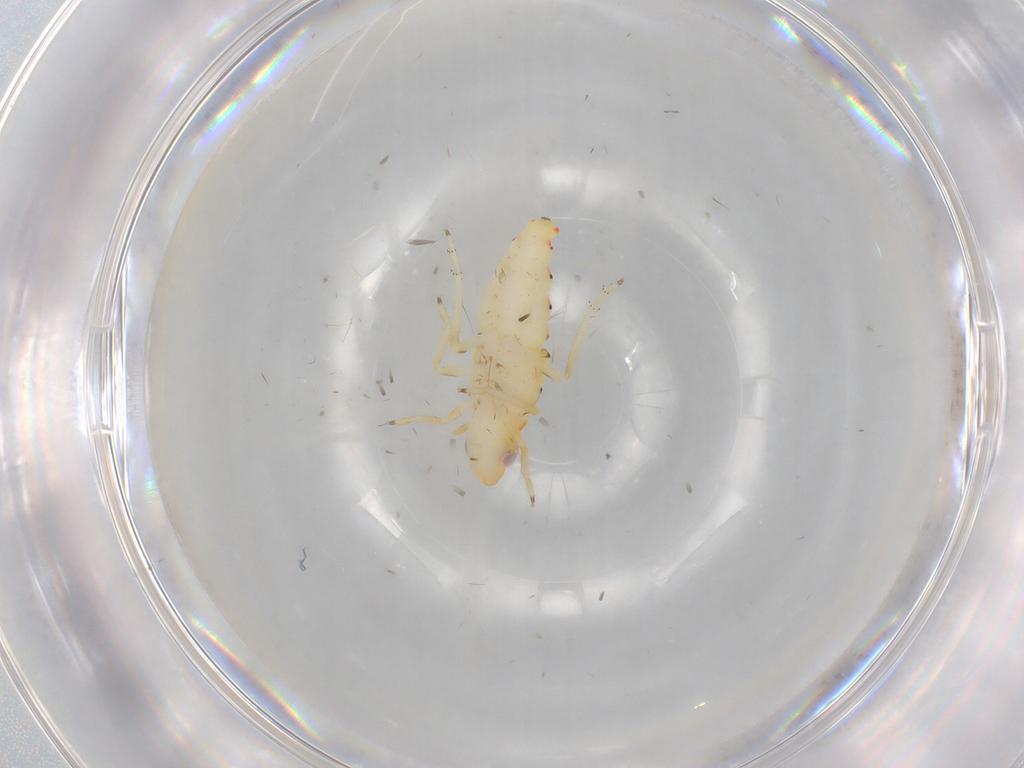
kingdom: Animalia
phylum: Arthropoda
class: Insecta
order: Hemiptera
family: Tropiduchidae
